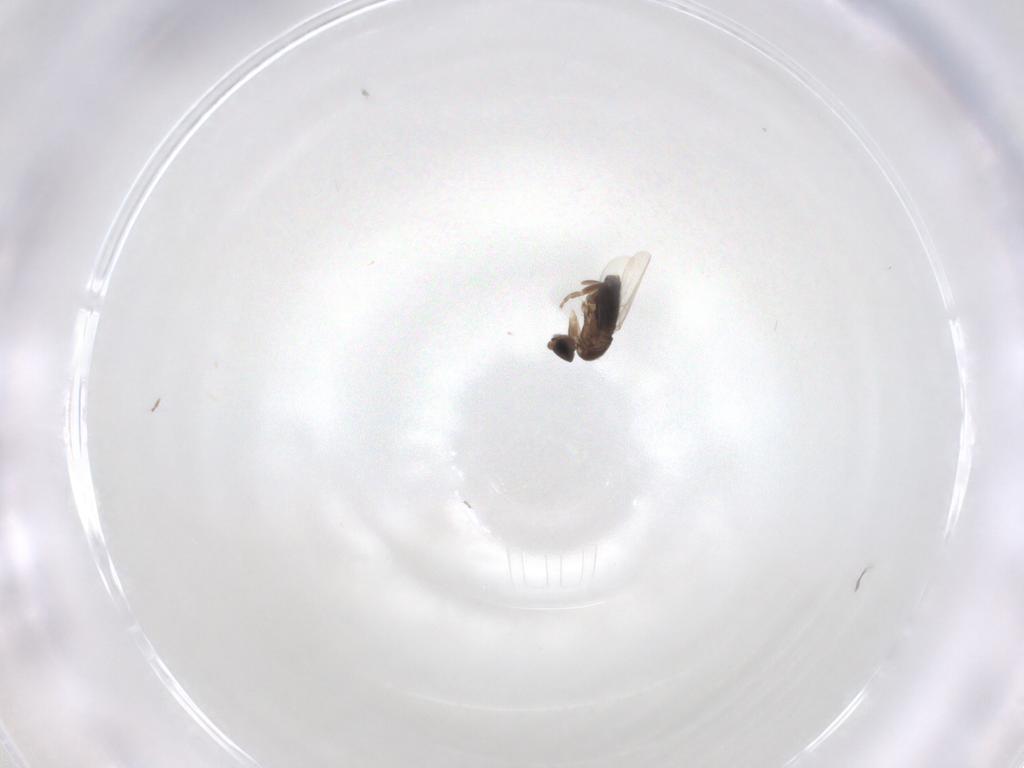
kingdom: Animalia
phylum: Arthropoda
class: Insecta
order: Diptera
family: Phoridae
